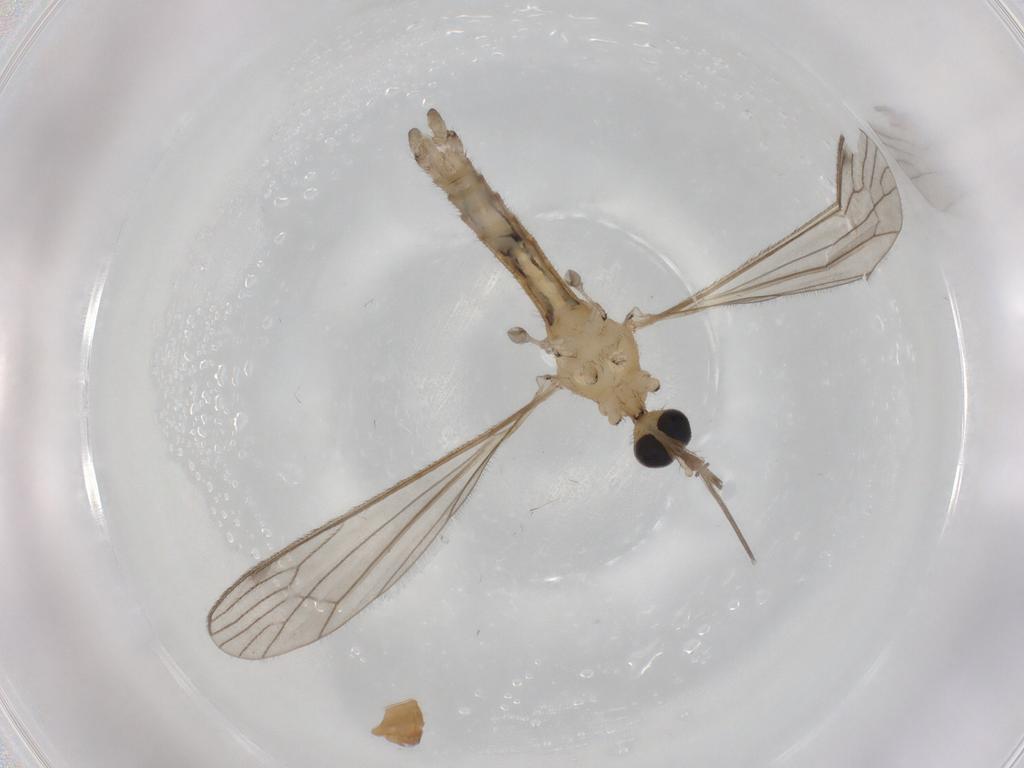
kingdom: Animalia
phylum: Arthropoda
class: Insecta
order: Diptera
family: Limoniidae
